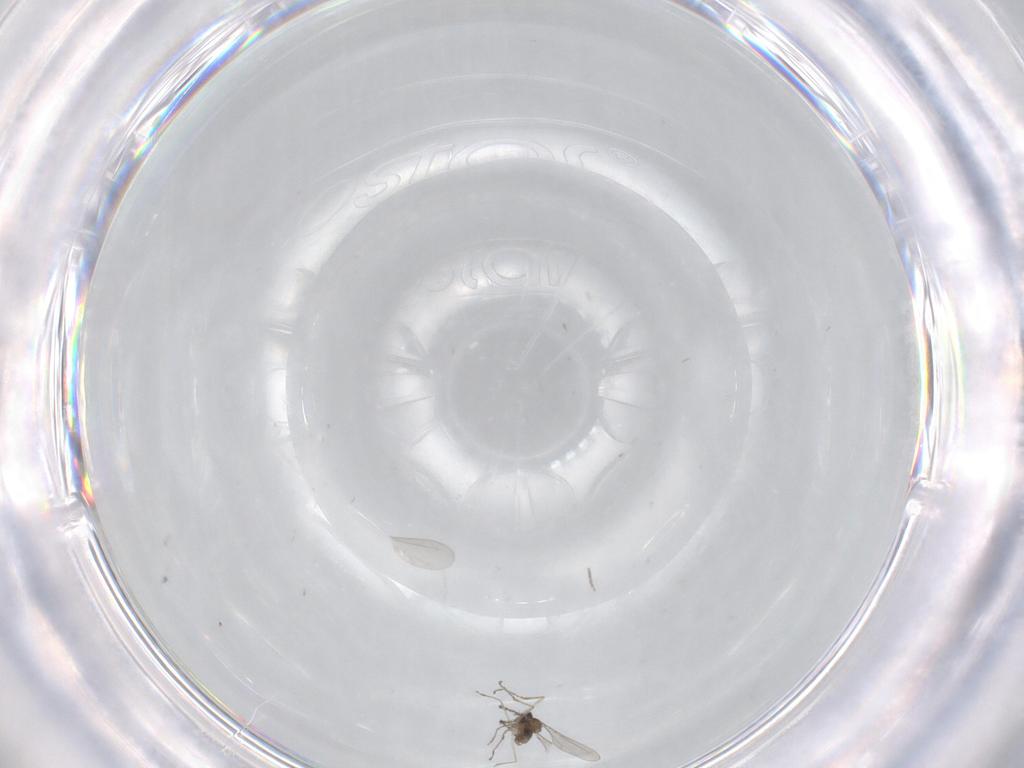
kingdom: Animalia
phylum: Arthropoda
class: Insecta
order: Diptera
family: Chironomidae
